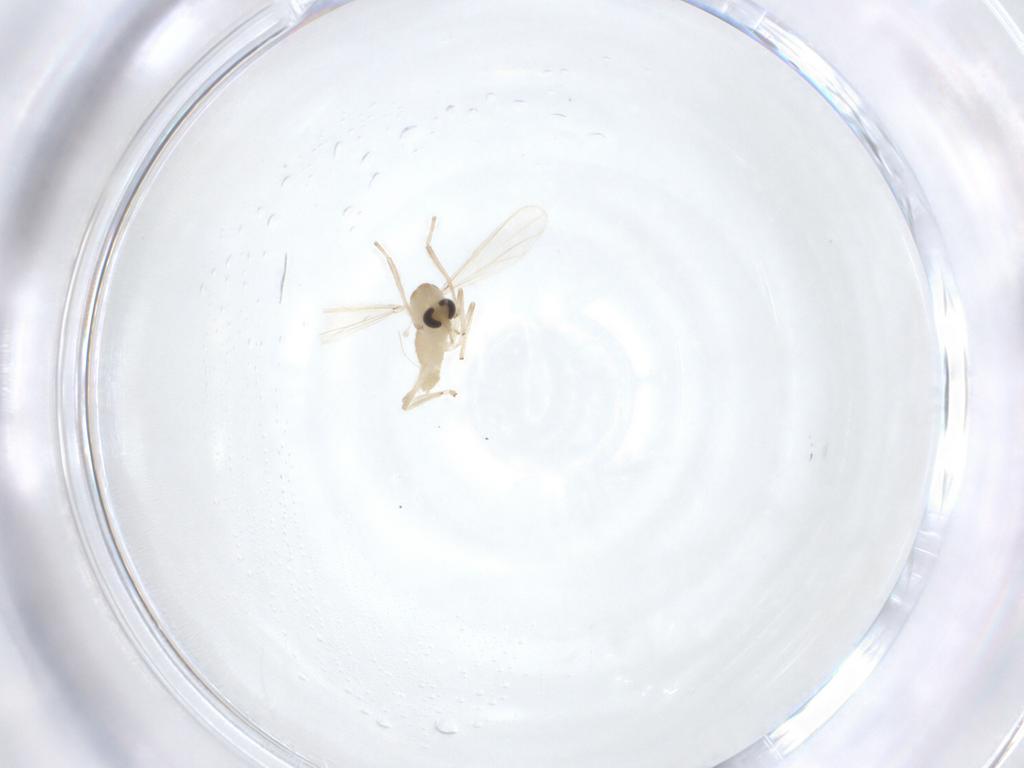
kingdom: Animalia
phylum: Arthropoda
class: Insecta
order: Diptera
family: Chironomidae
